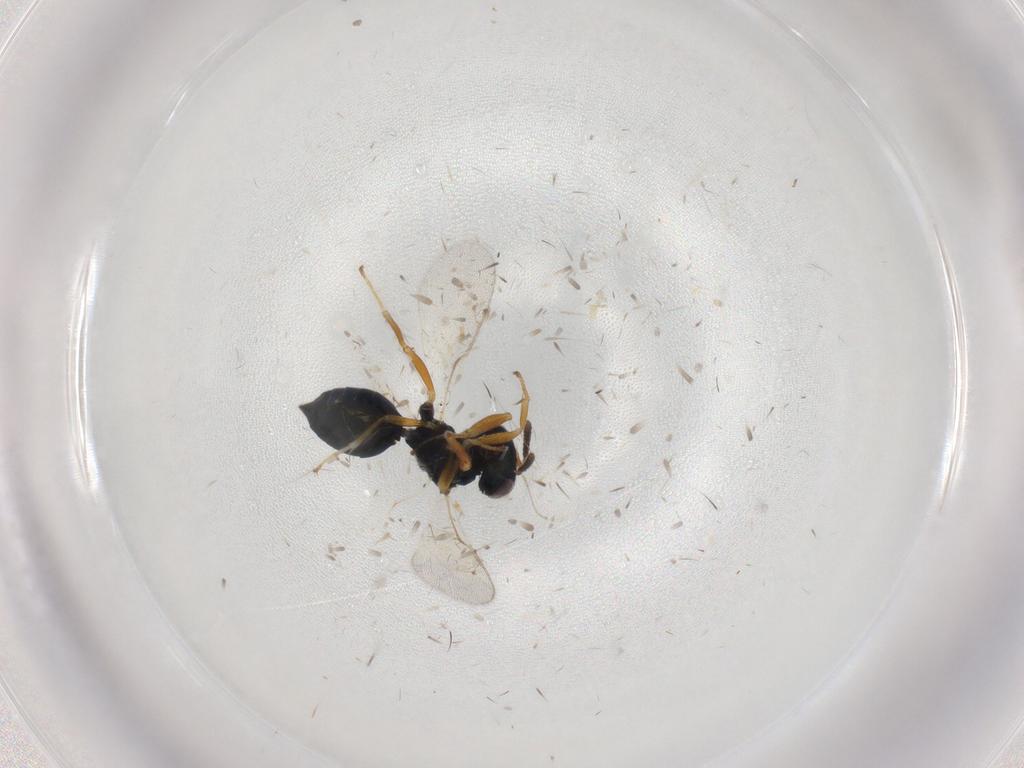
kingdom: Animalia
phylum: Arthropoda
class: Insecta
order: Hymenoptera
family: Pteromalidae
